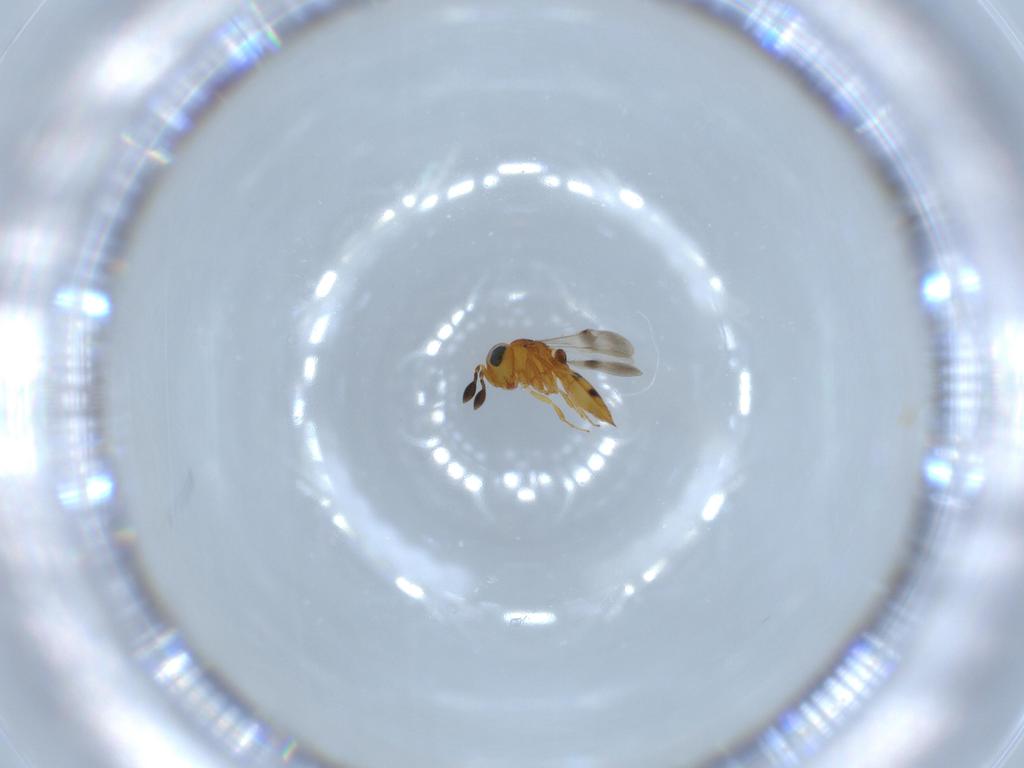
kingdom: Animalia
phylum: Arthropoda
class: Insecta
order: Hymenoptera
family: Scelionidae
